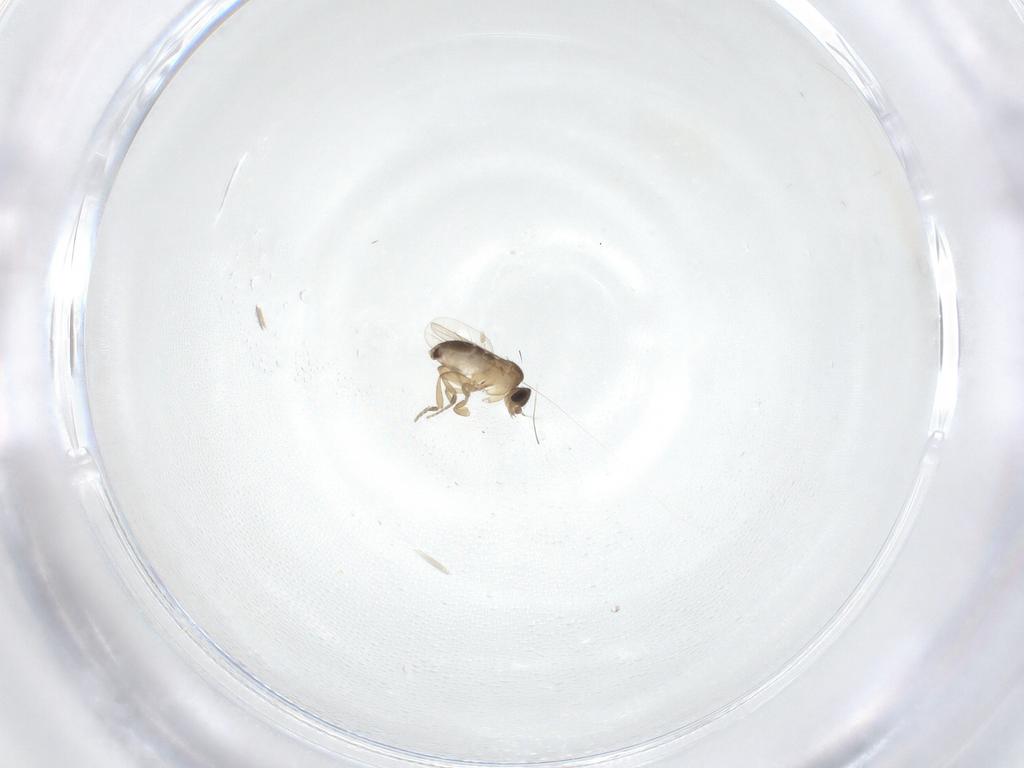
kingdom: Animalia
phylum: Arthropoda
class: Insecta
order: Diptera
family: Phoridae
